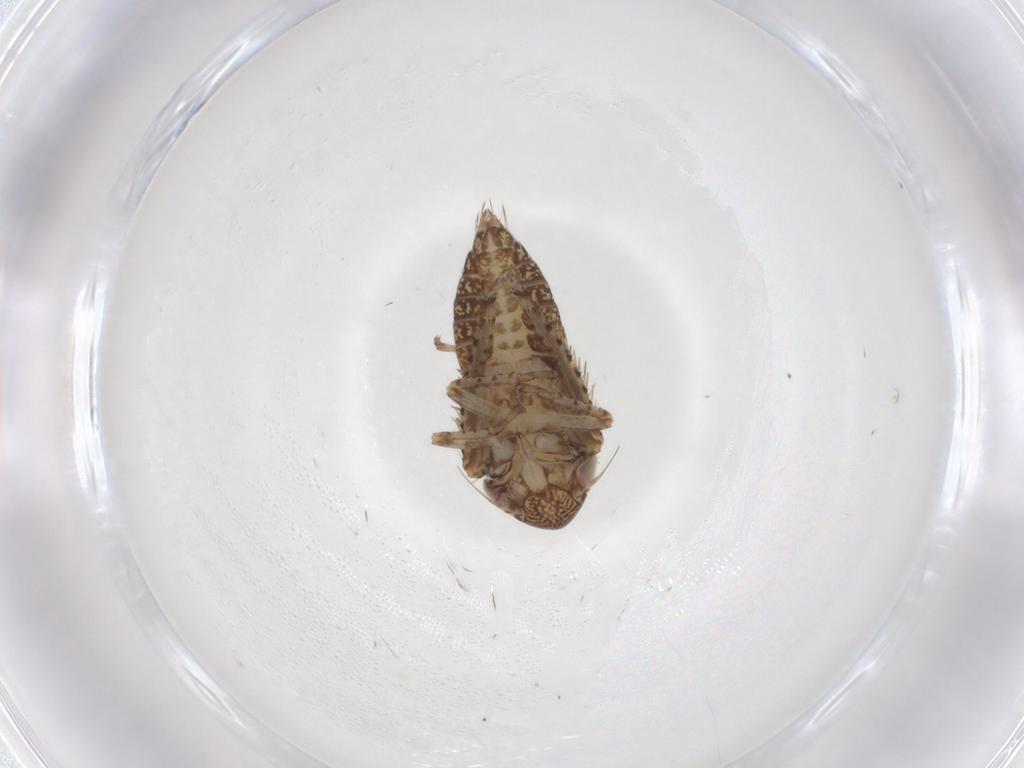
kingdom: Animalia
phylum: Arthropoda
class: Insecta
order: Hemiptera
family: Cicadellidae
